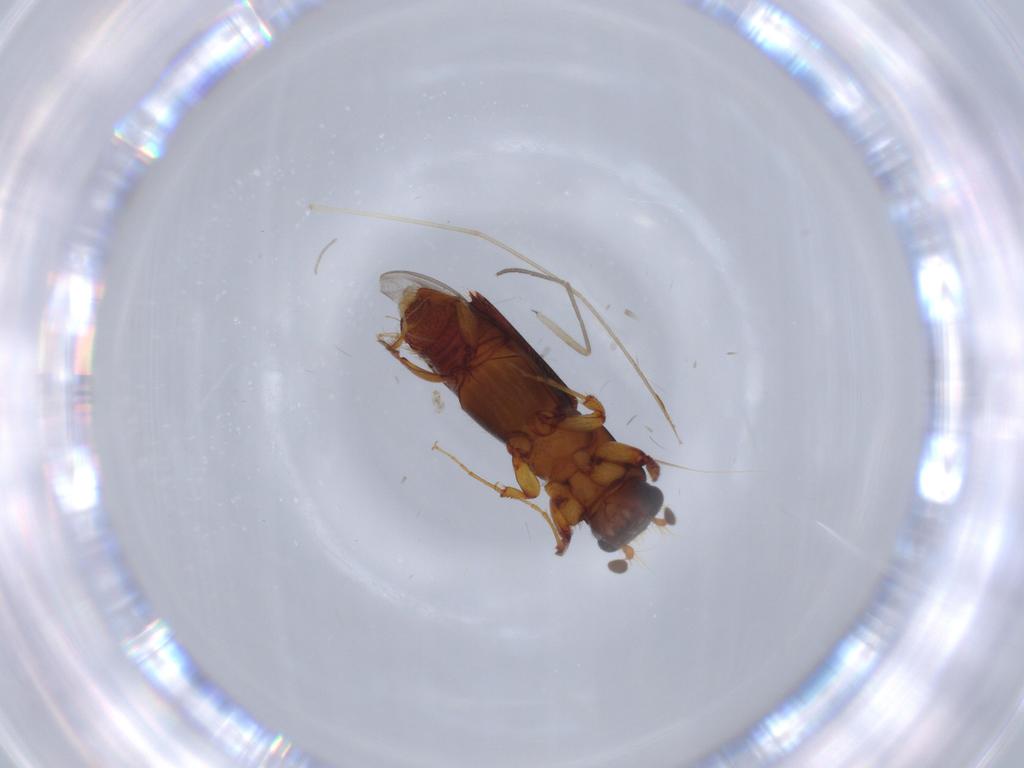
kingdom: Animalia
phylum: Arthropoda
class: Insecta
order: Coleoptera
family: Curculionidae
